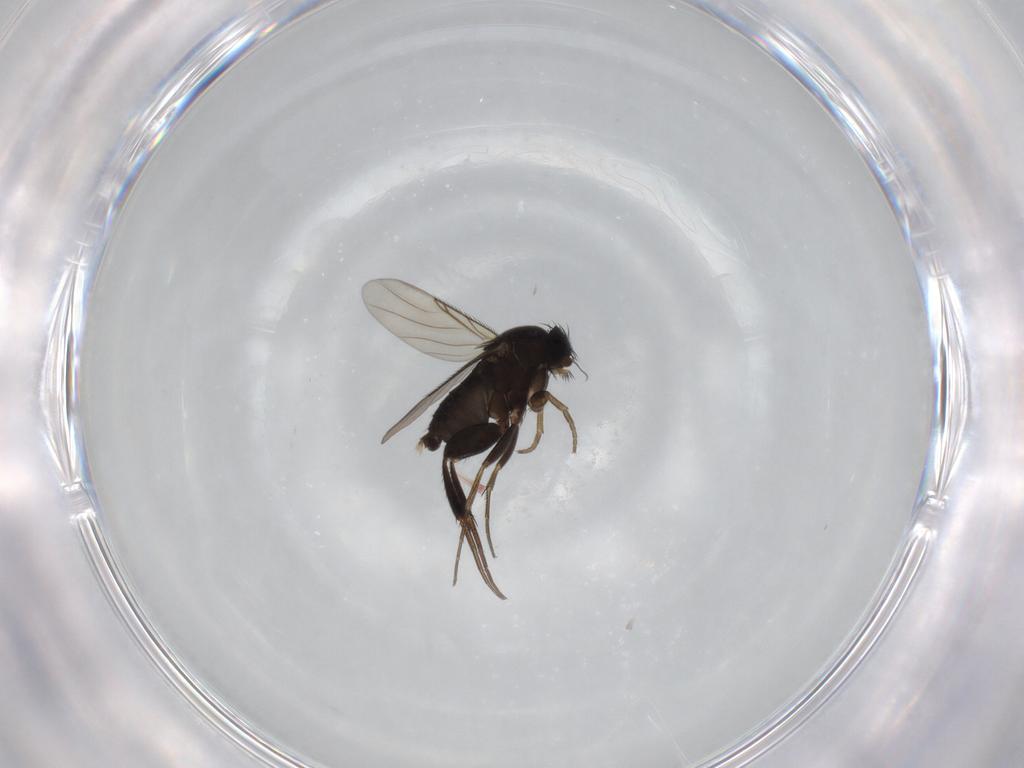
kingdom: Animalia
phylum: Arthropoda
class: Insecta
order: Diptera
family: Phoridae
